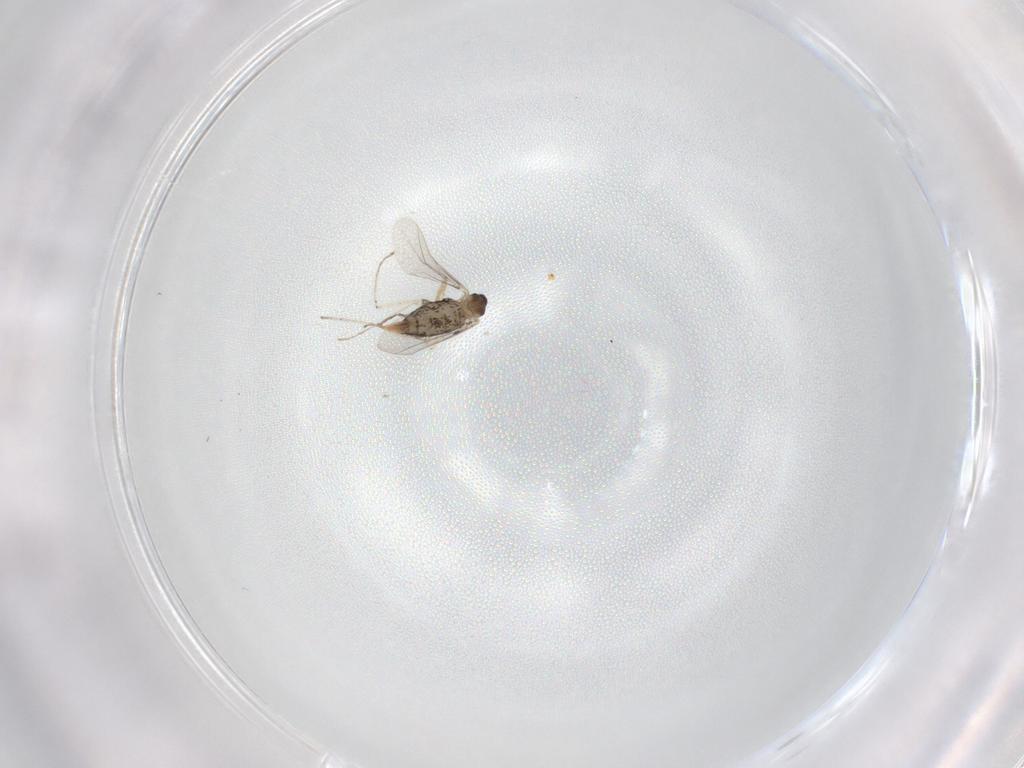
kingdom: Animalia
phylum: Arthropoda
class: Insecta
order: Diptera
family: Cecidomyiidae
